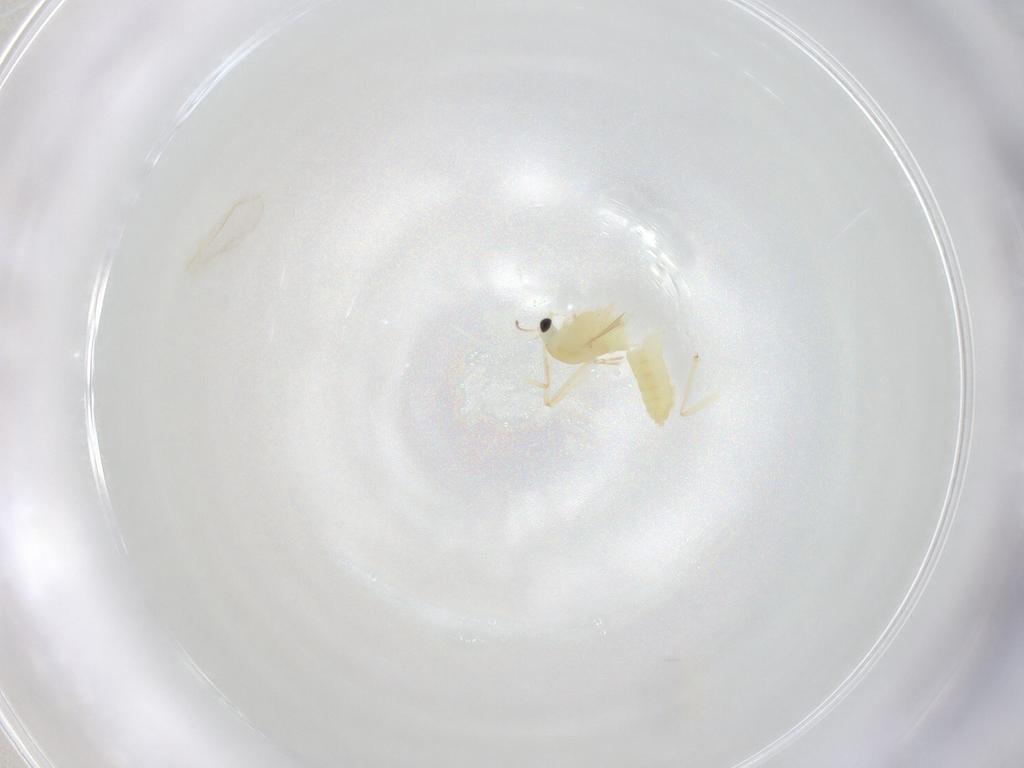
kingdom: Animalia
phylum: Arthropoda
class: Insecta
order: Diptera
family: Chironomidae
